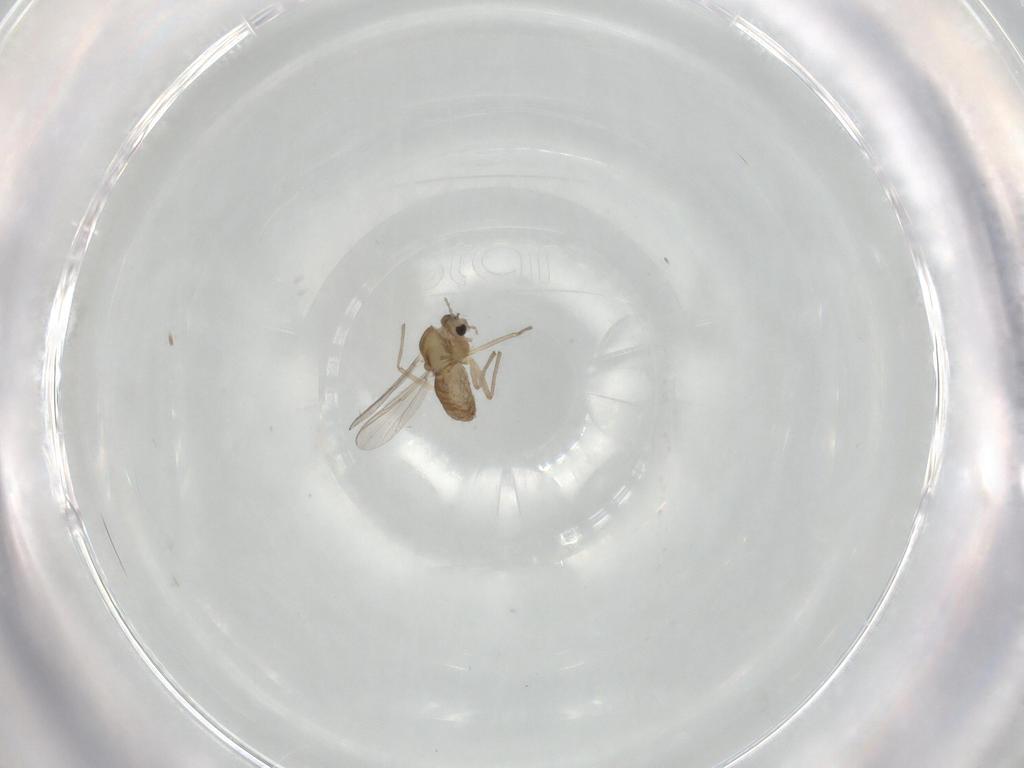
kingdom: Animalia
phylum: Arthropoda
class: Insecta
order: Diptera
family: Chironomidae
